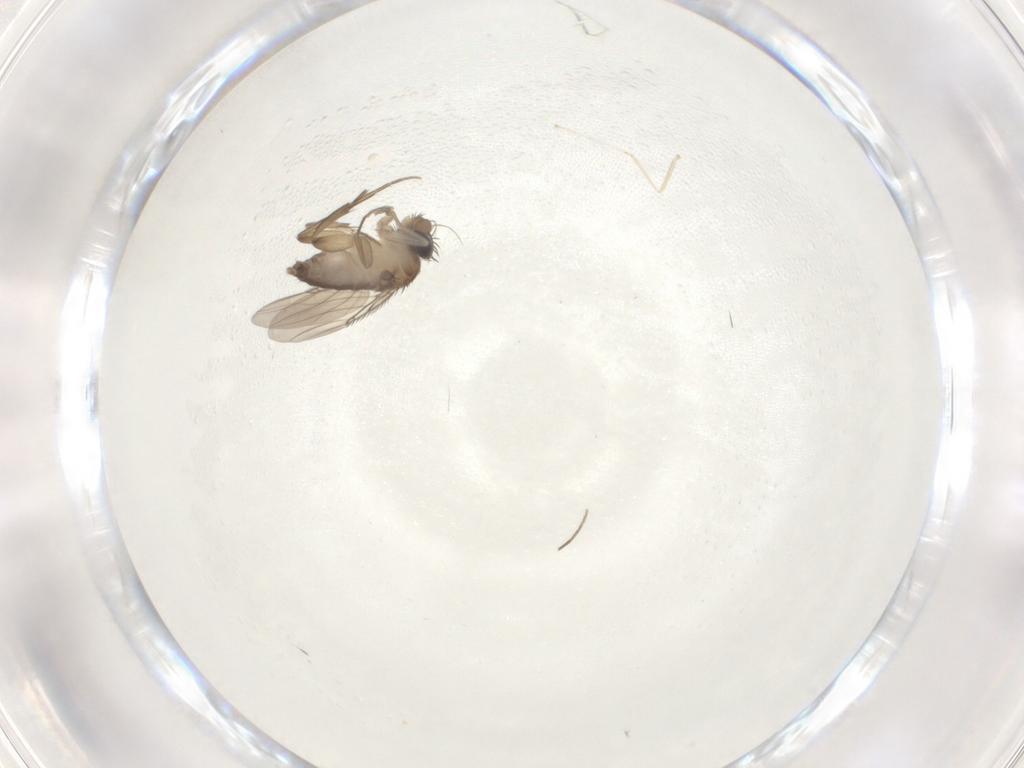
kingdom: Animalia
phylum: Arthropoda
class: Insecta
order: Diptera
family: Phoridae
